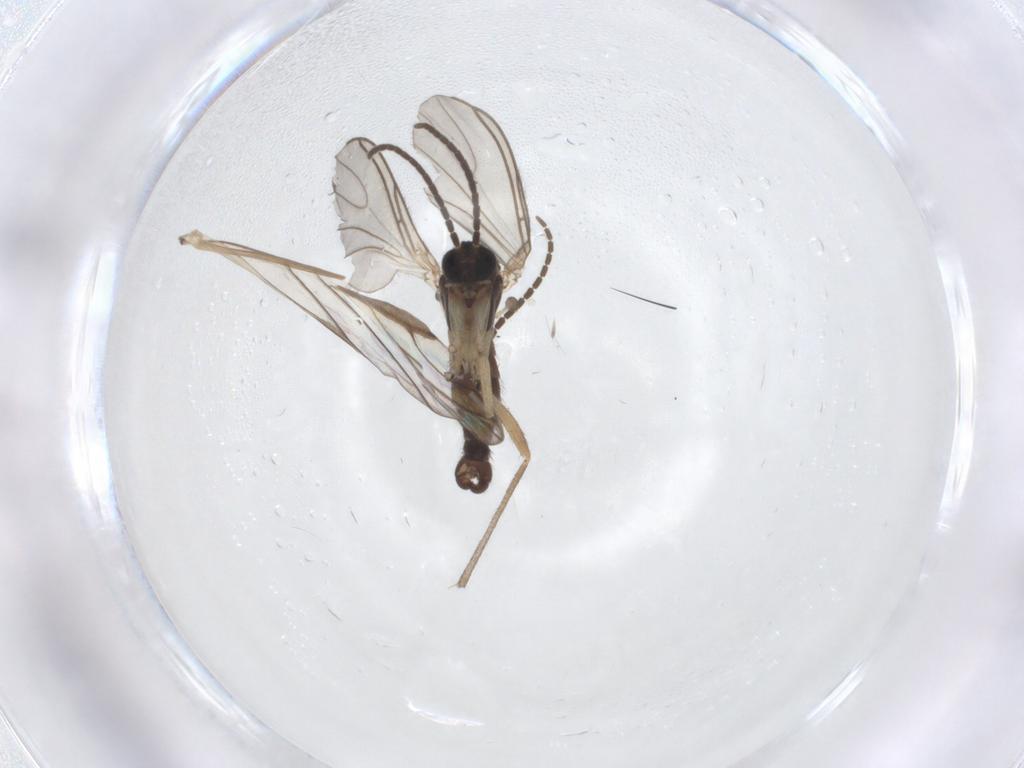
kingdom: Animalia
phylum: Arthropoda
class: Insecta
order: Diptera
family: Sciaridae
